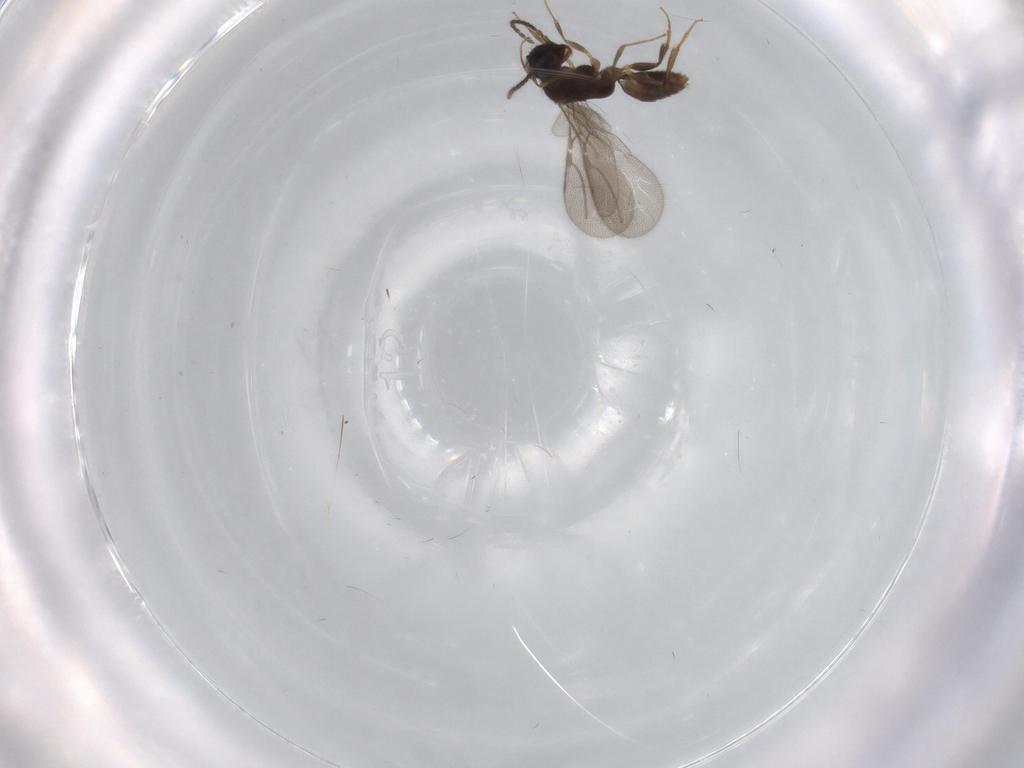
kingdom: Animalia
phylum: Arthropoda
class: Insecta
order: Hymenoptera
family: Bethylidae
